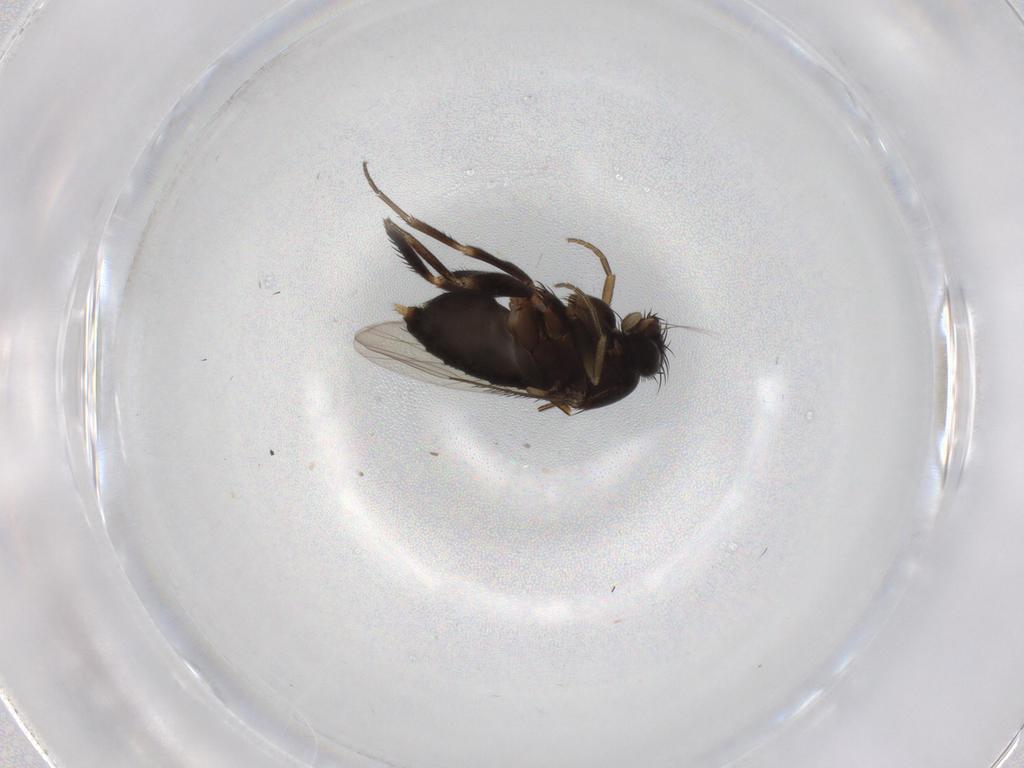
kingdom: Animalia
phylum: Arthropoda
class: Insecta
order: Diptera
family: Phoridae
